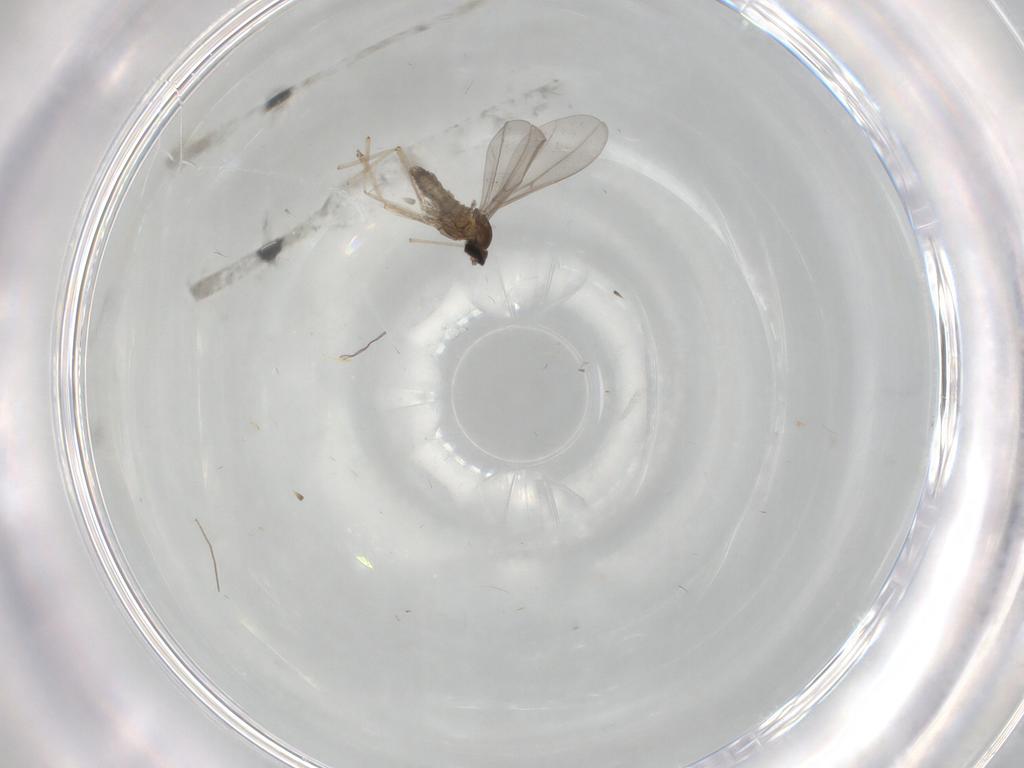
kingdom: Animalia
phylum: Arthropoda
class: Insecta
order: Diptera
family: Cecidomyiidae
